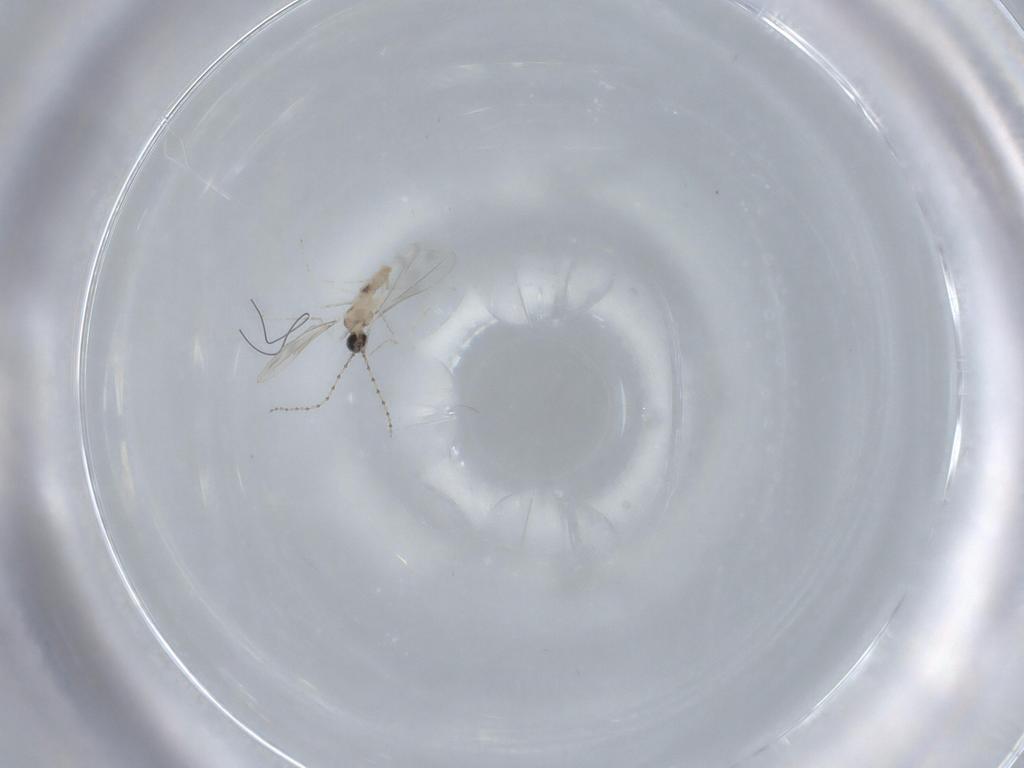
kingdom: Animalia
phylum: Arthropoda
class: Insecta
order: Diptera
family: Cecidomyiidae
